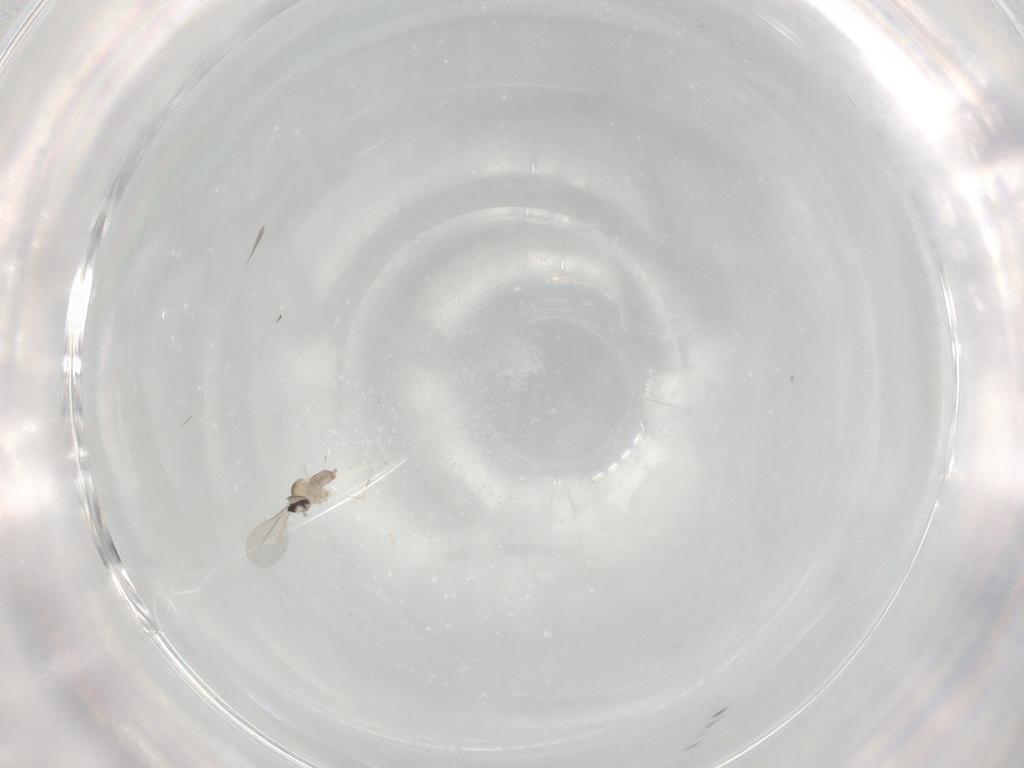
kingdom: Animalia
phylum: Arthropoda
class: Insecta
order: Diptera
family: Cecidomyiidae
